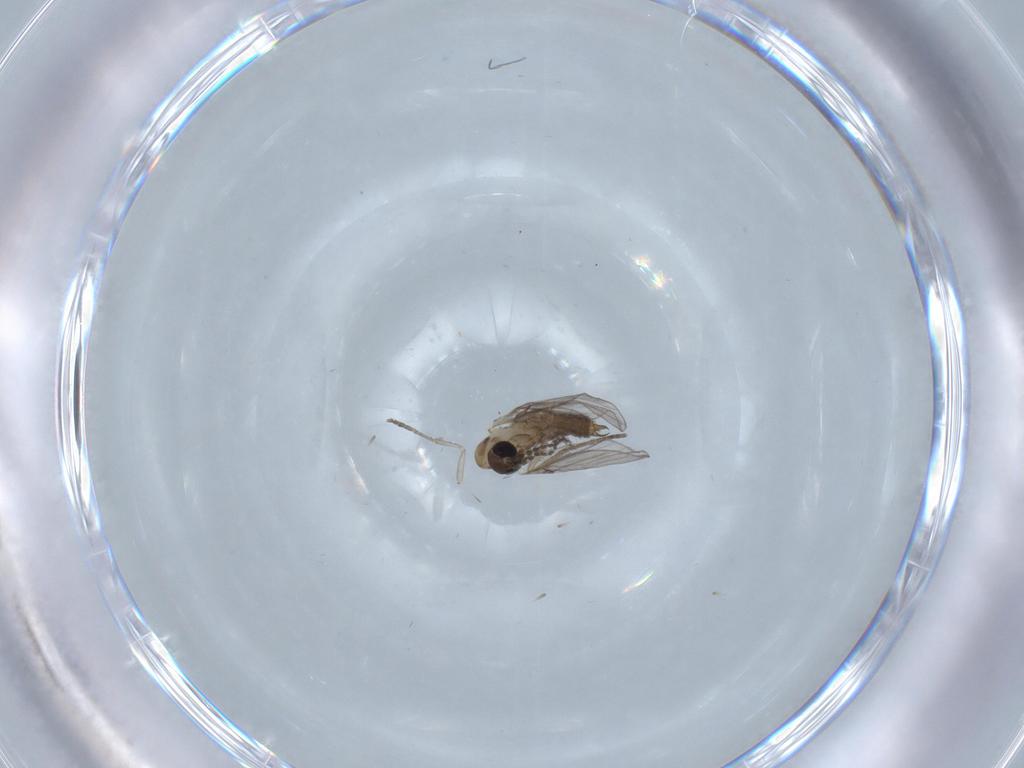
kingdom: Animalia
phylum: Arthropoda
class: Insecta
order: Diptera
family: Psychodidae
